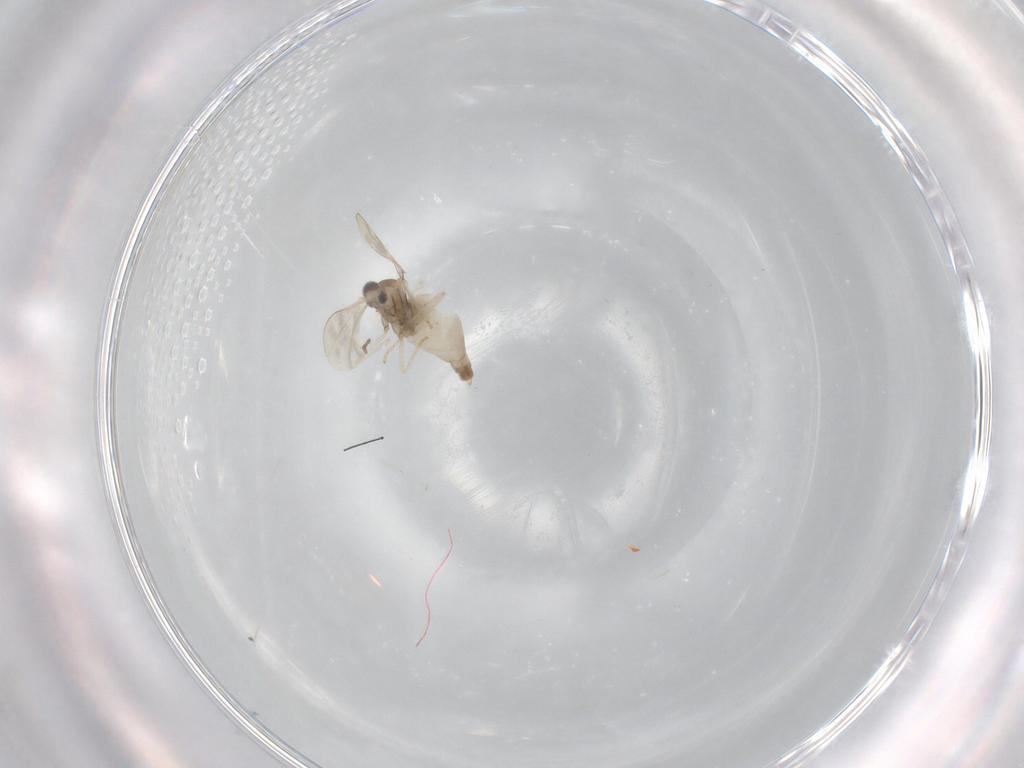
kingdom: Animalia
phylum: Arthropoda
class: Insecta
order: Diptera
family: Cecidomyiidae
